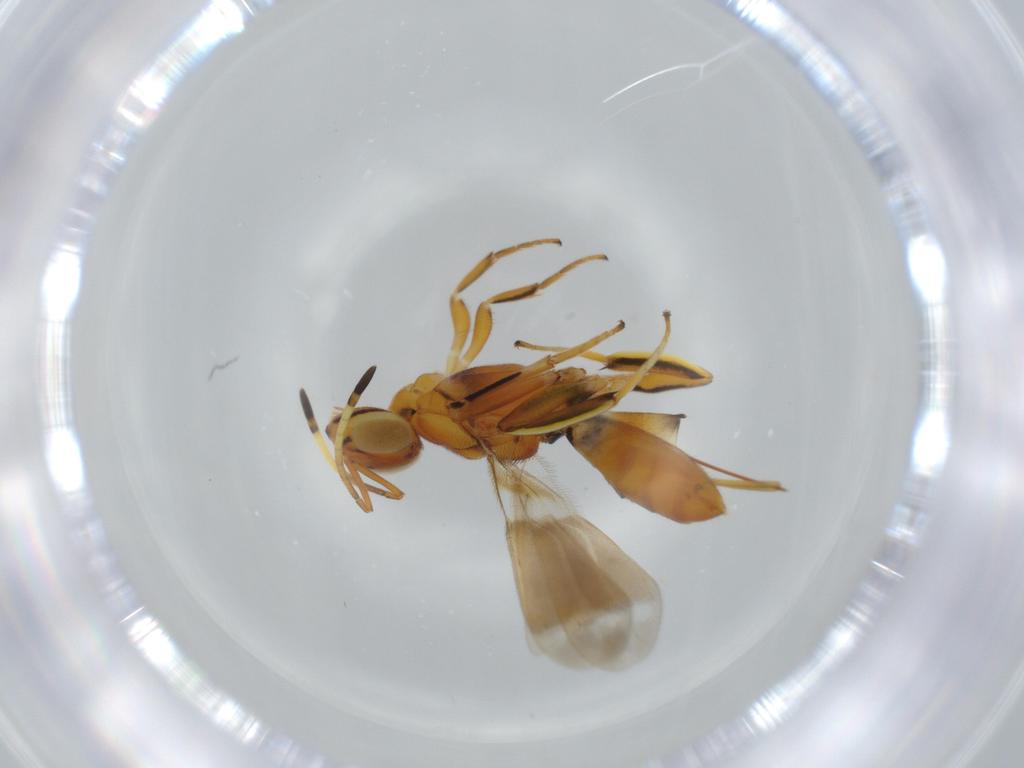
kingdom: Animalia
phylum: Arthropoda
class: Insecta
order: Hymenoptera
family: Eupelmidae
